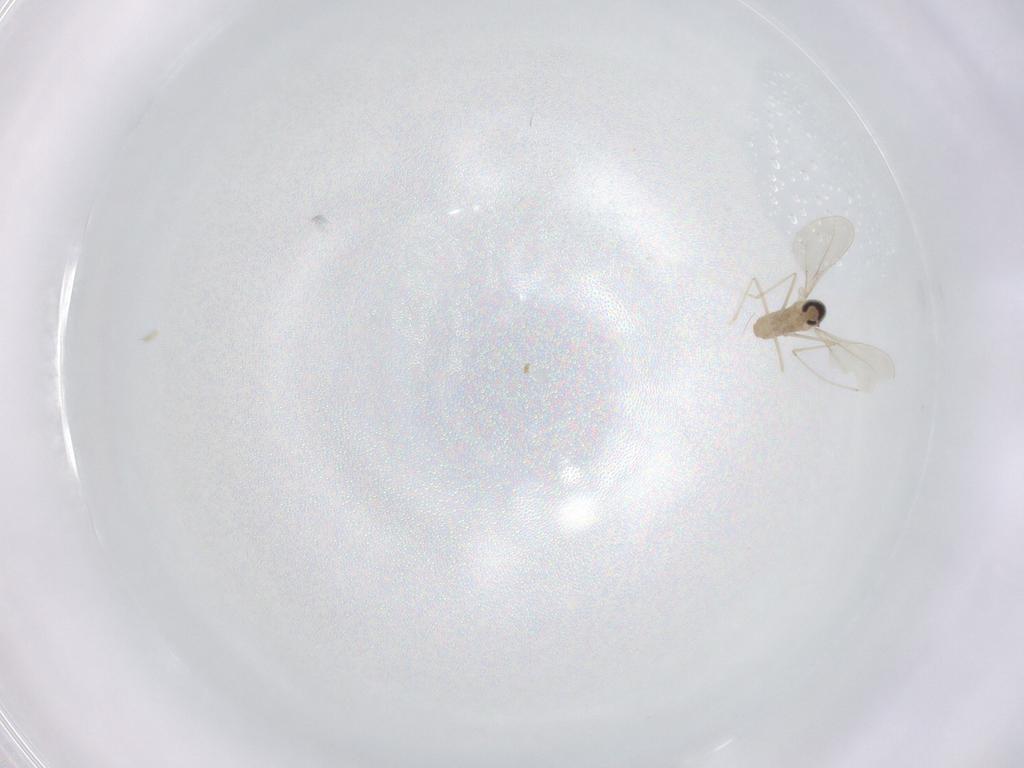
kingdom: Animalia
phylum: Arthropoda
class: Insecta
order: Diptera
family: Cecidomyiidae
